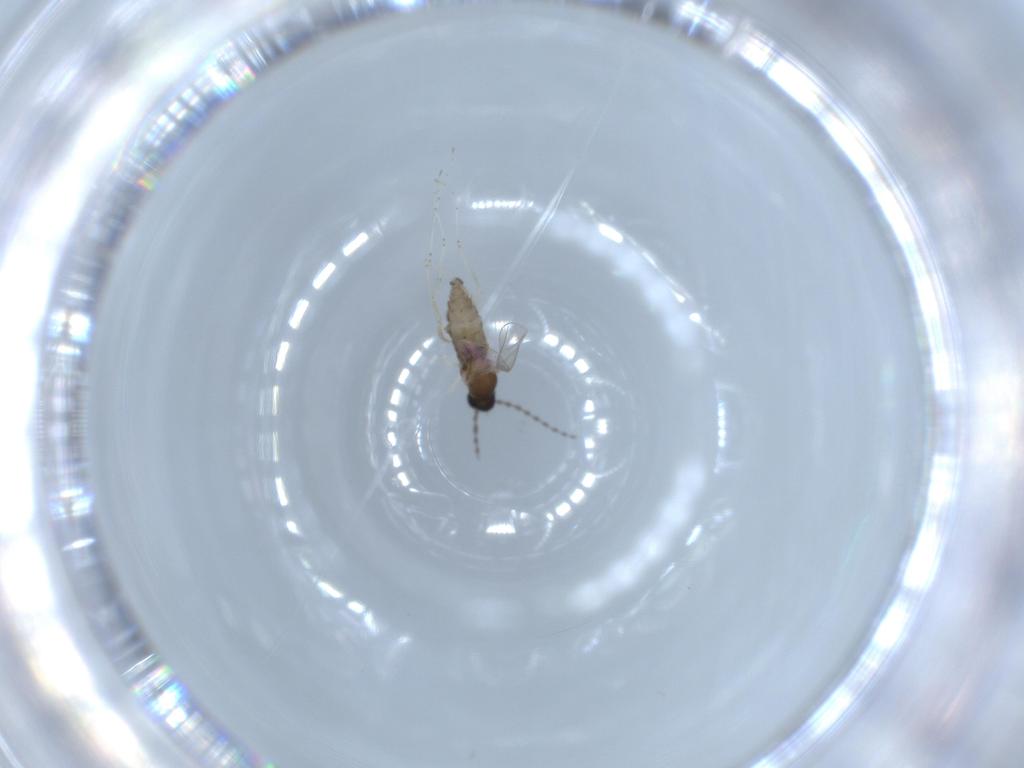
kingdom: Animalia
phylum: Arthropoda
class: Insecta
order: Diptera
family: Cecidomyiidae
